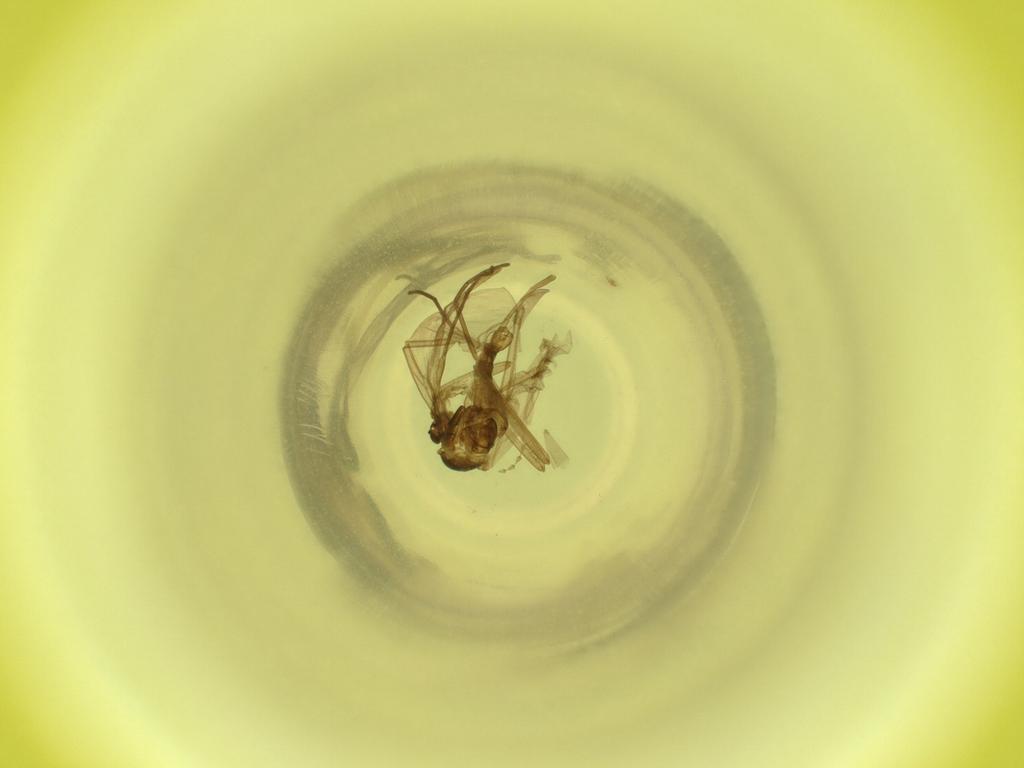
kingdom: Animalia
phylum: Arthropoda
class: Insecta
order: Diptera
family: Cecidomyiidae
